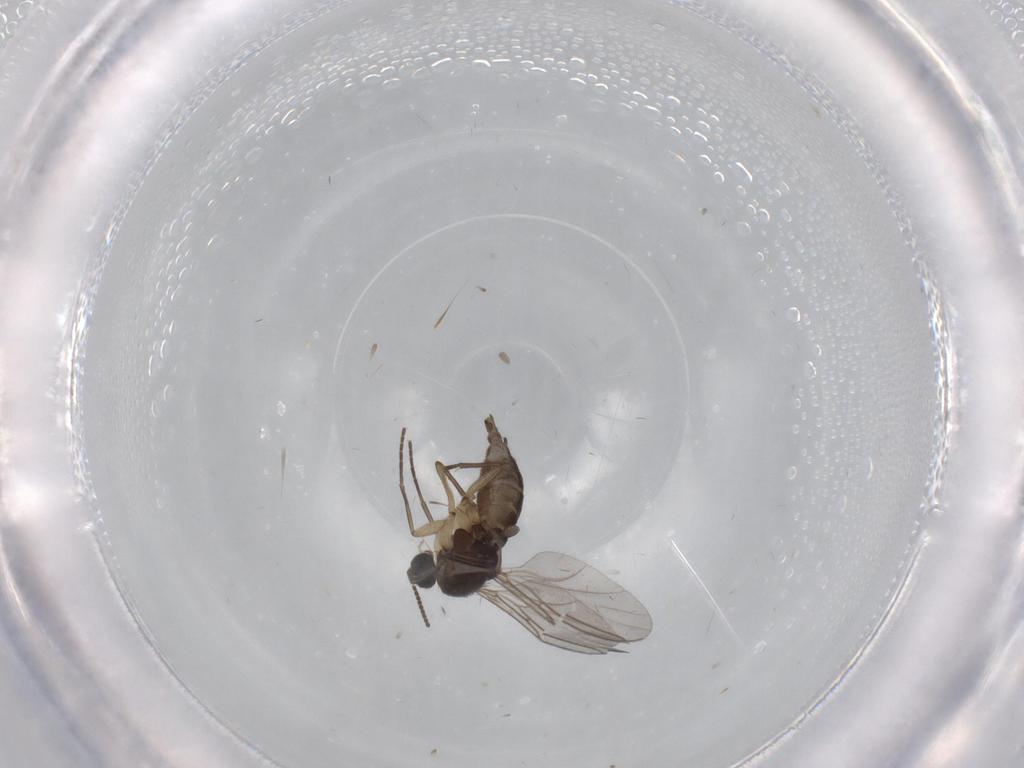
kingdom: Animalia
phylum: Arthropoda
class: Insecta
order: Diptera
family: Sciaridae
